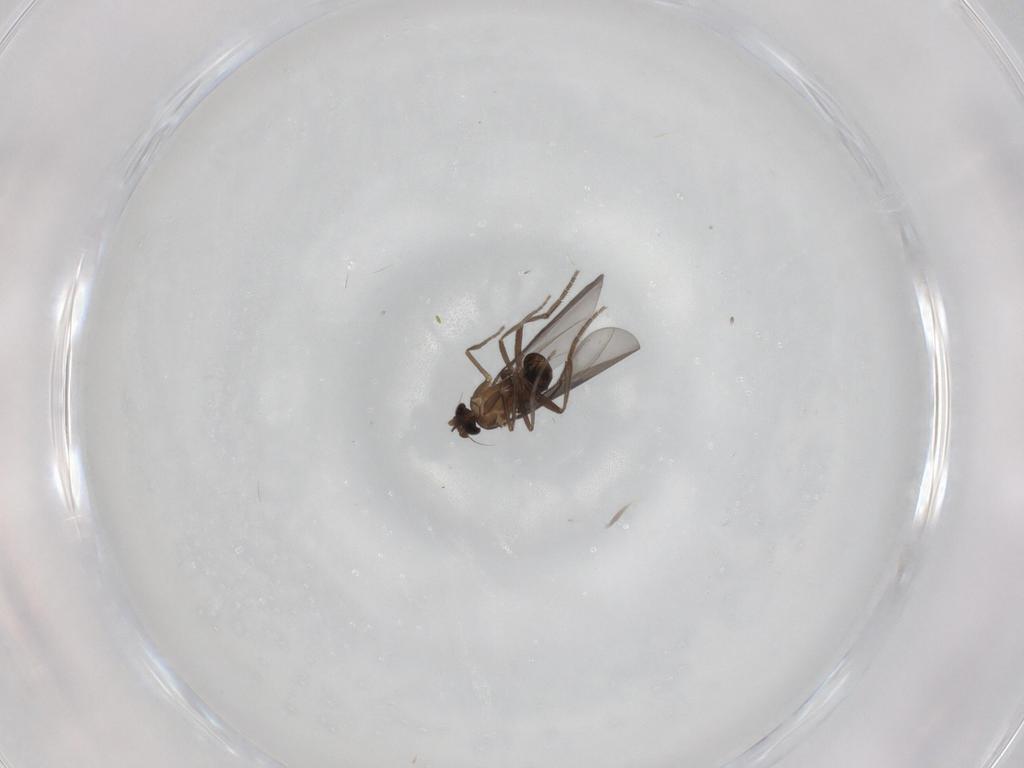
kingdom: Animalia
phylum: Arthropoda
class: Insecta
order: Diptera
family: Phoridae
